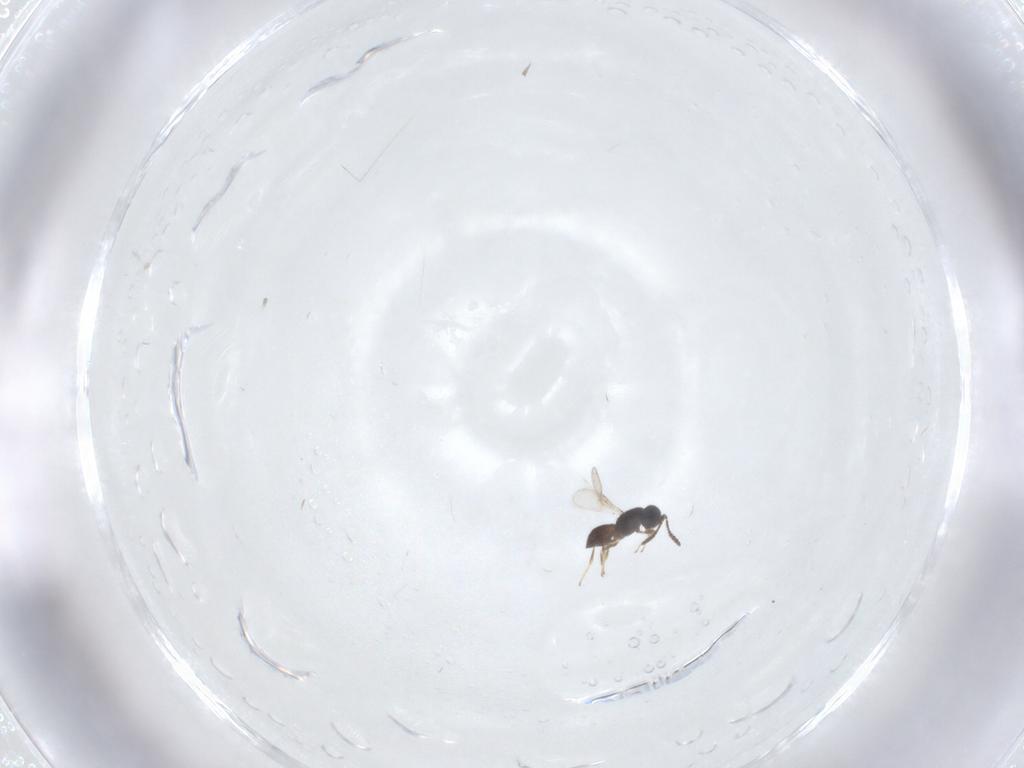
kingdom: Animalia
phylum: Arthropoda
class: Insecta
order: Hymenoptera
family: Scelionidae
